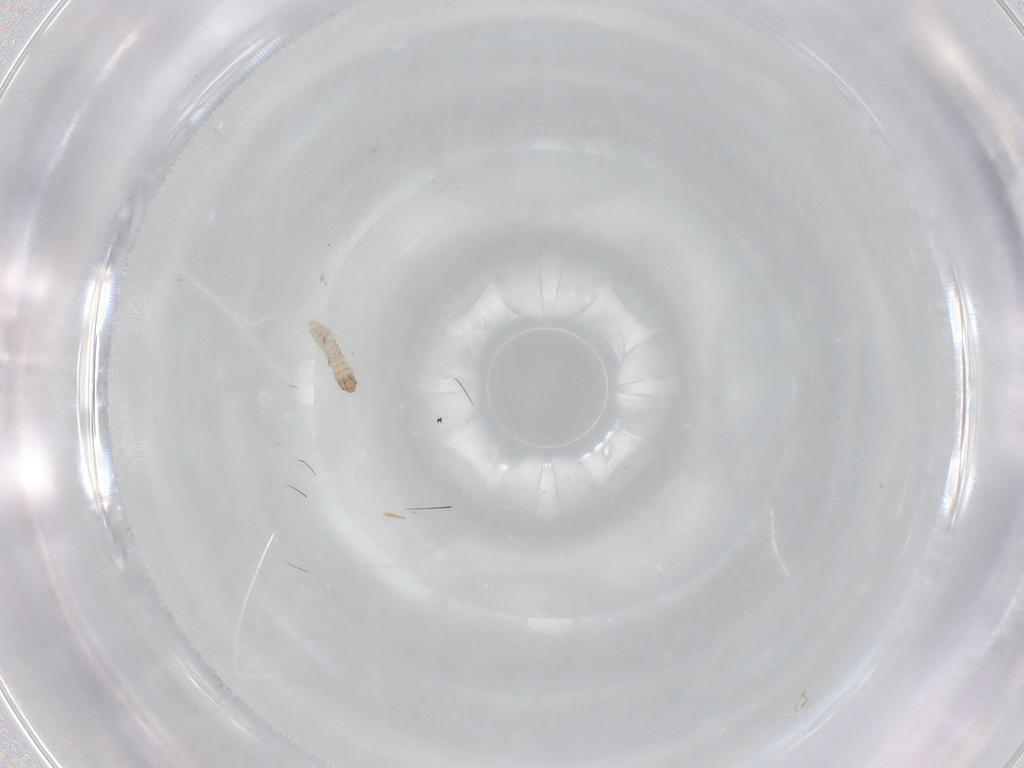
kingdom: Animalia
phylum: Arthropoda
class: Insecta
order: Lepidoptera
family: Tineidae
